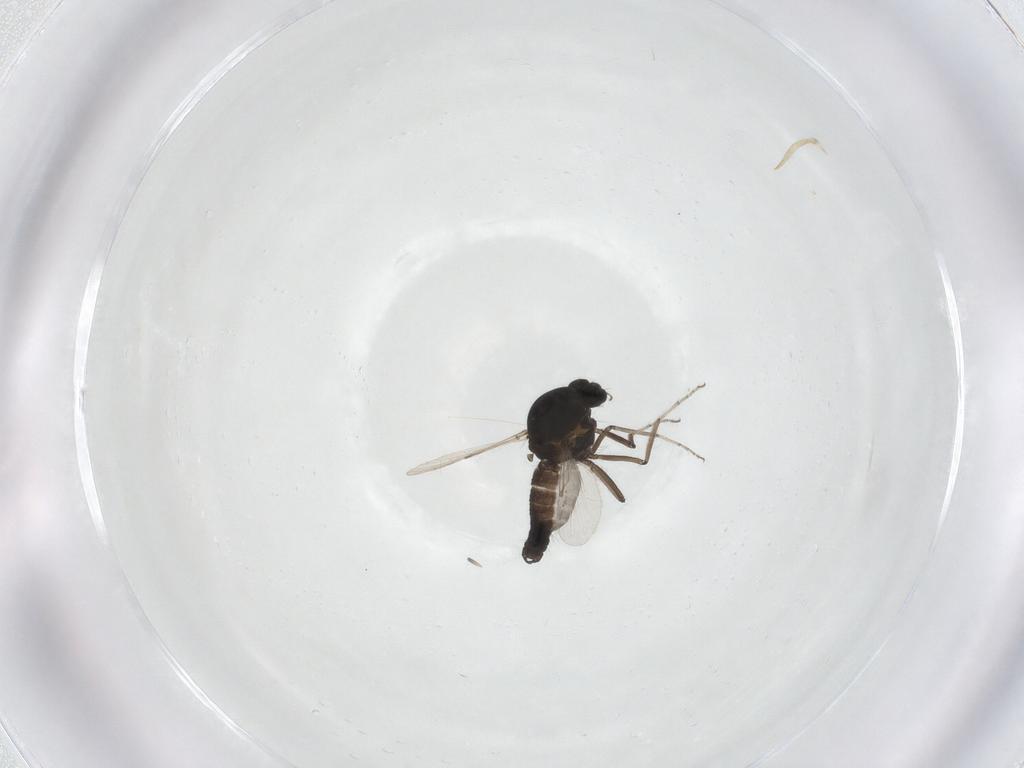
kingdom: Animalia
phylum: Arthropoda
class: Insecta
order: Diptera
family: Ceratopogonidae
